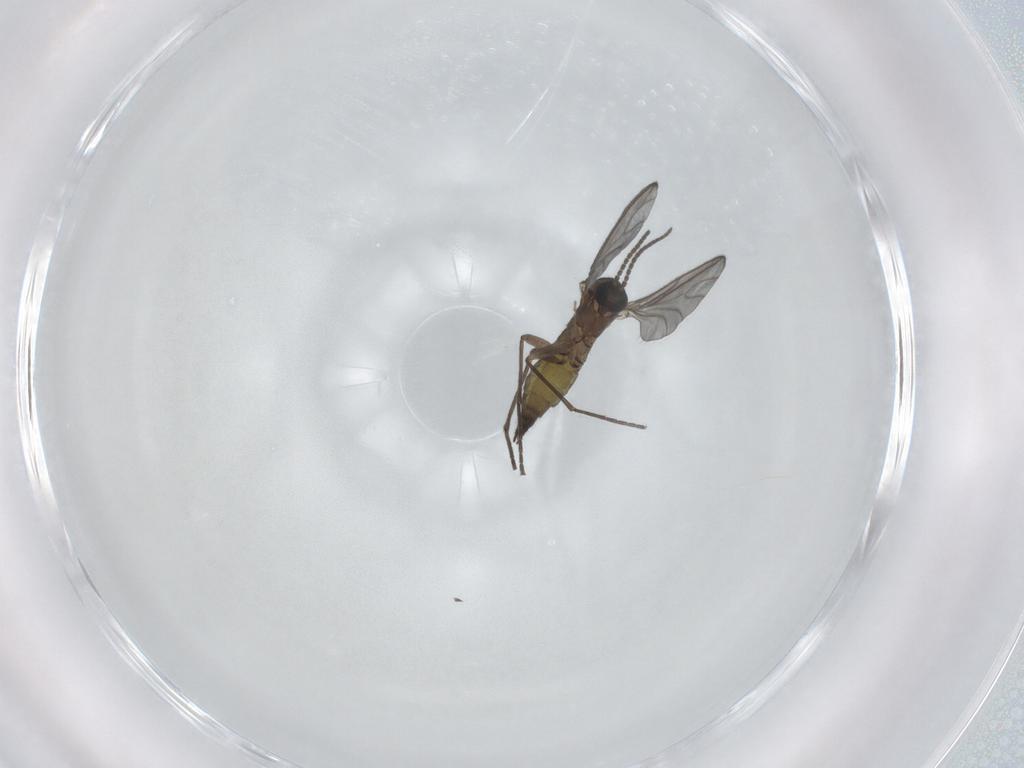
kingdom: Animalia
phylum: Arthropoda
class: Insecta
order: Diptera
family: Sciaridae
